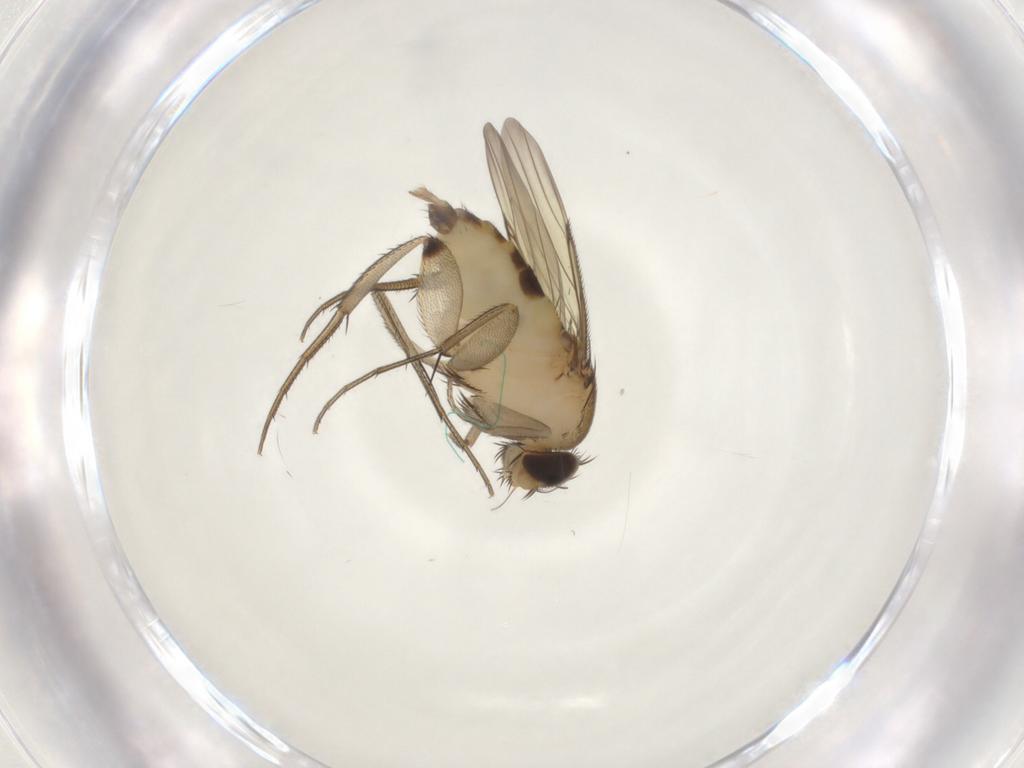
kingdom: Animalia
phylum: Arthropoda
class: Insecta
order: Diptera
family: Phoridae
